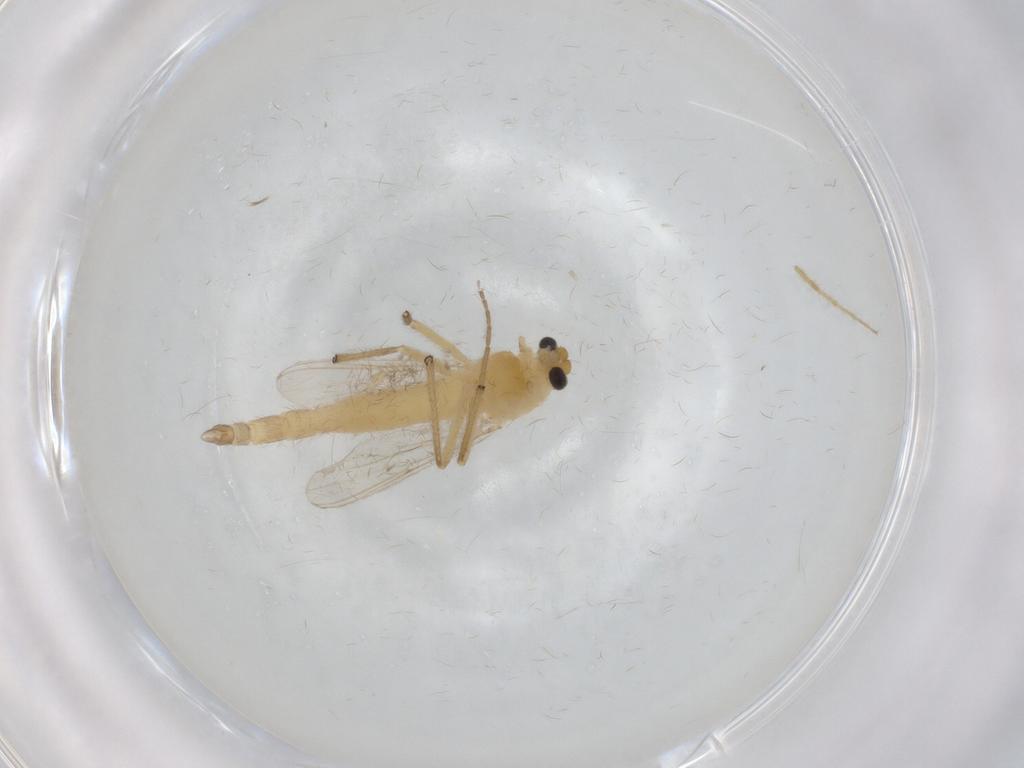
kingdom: Animalia
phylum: Arthropoda
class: Insecta
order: Diptera
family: Chironomidae
